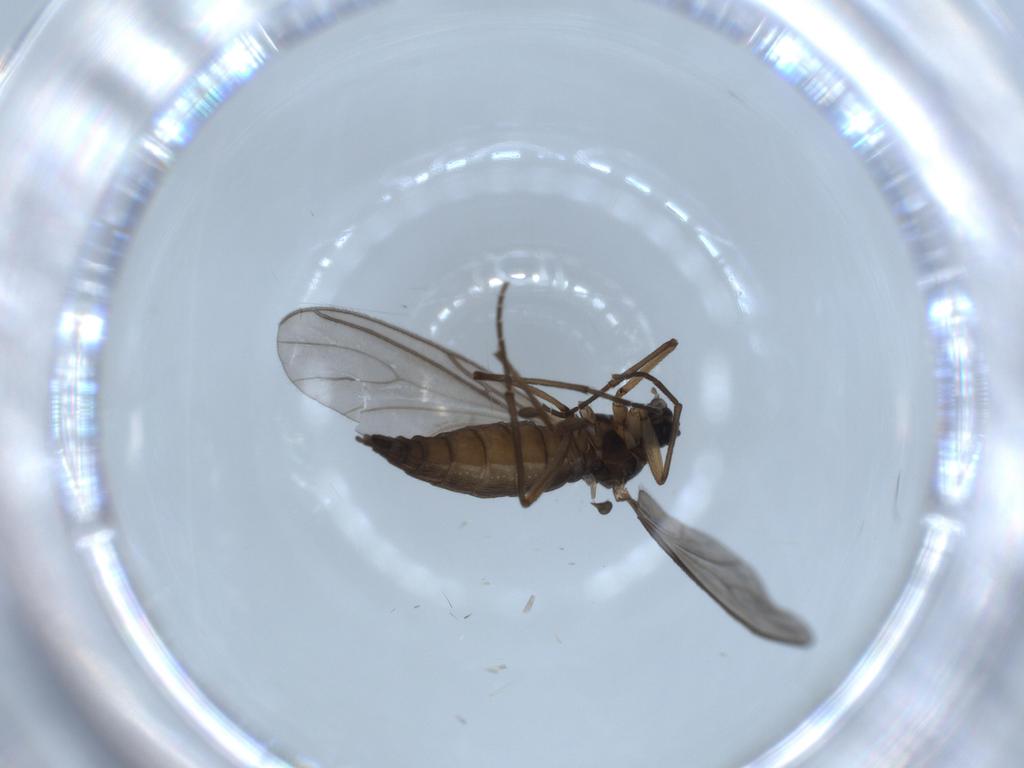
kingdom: Animalia
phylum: Arthropoda
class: Insecta
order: Diptera
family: Sciaridae
